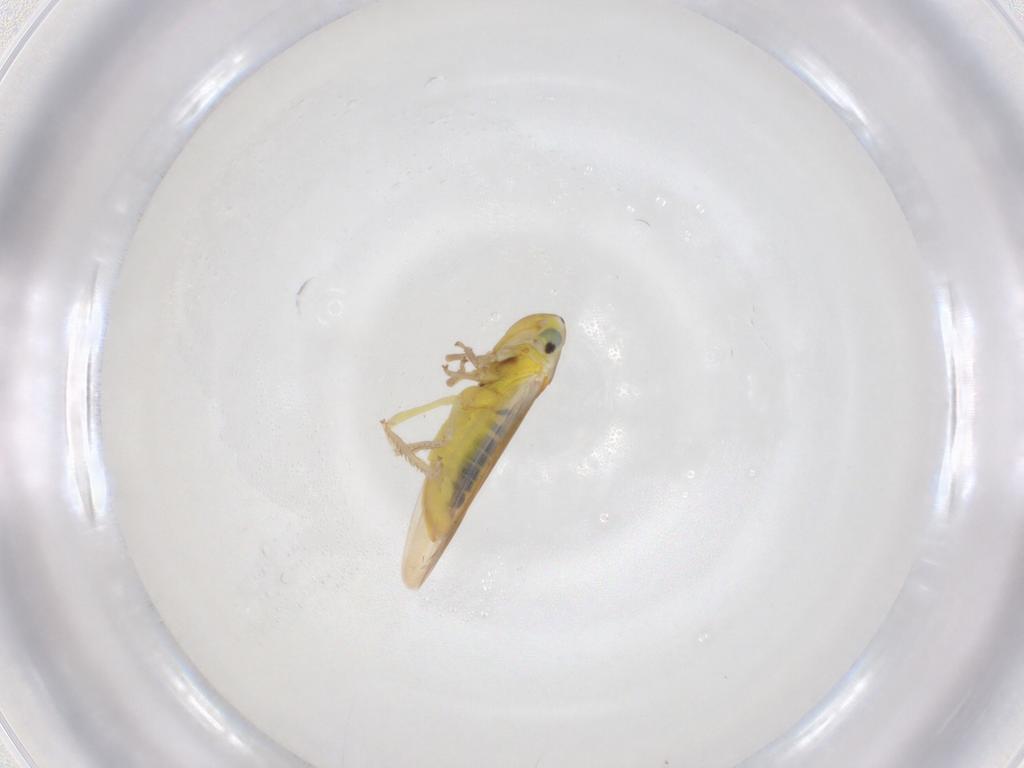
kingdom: Animalia
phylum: Arthropoda
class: Insecta
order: Hemiptera
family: Cicadellidae
